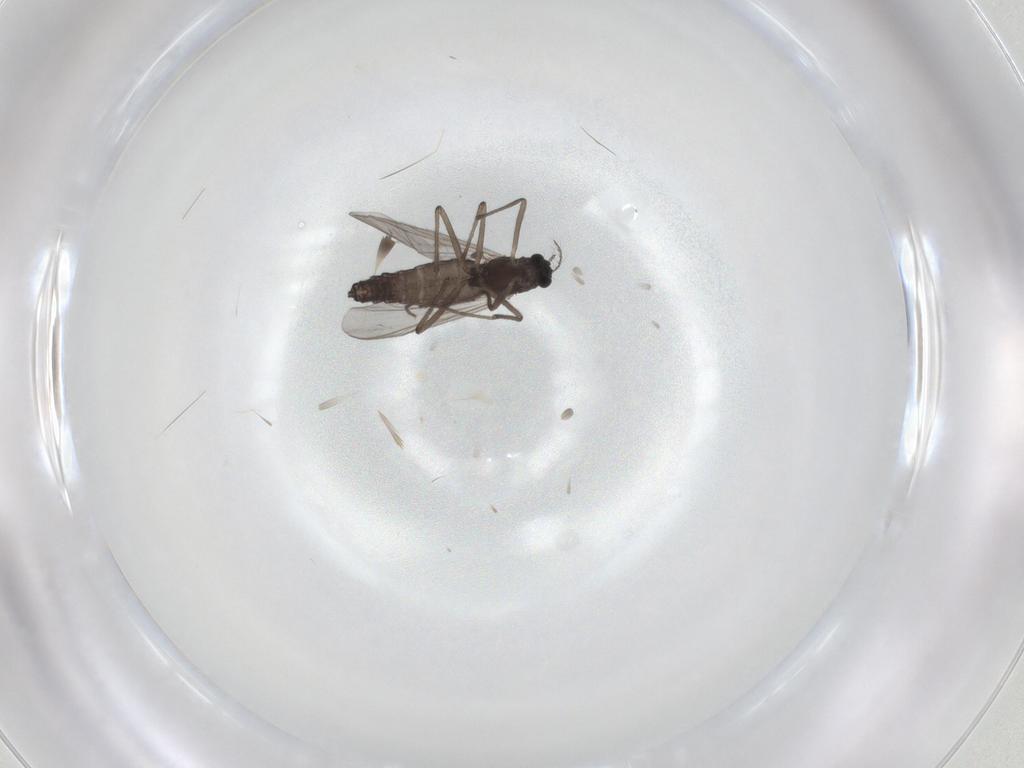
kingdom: Animalia
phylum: Arthropoda
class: Insecta
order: Diptera
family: Chironomidae
